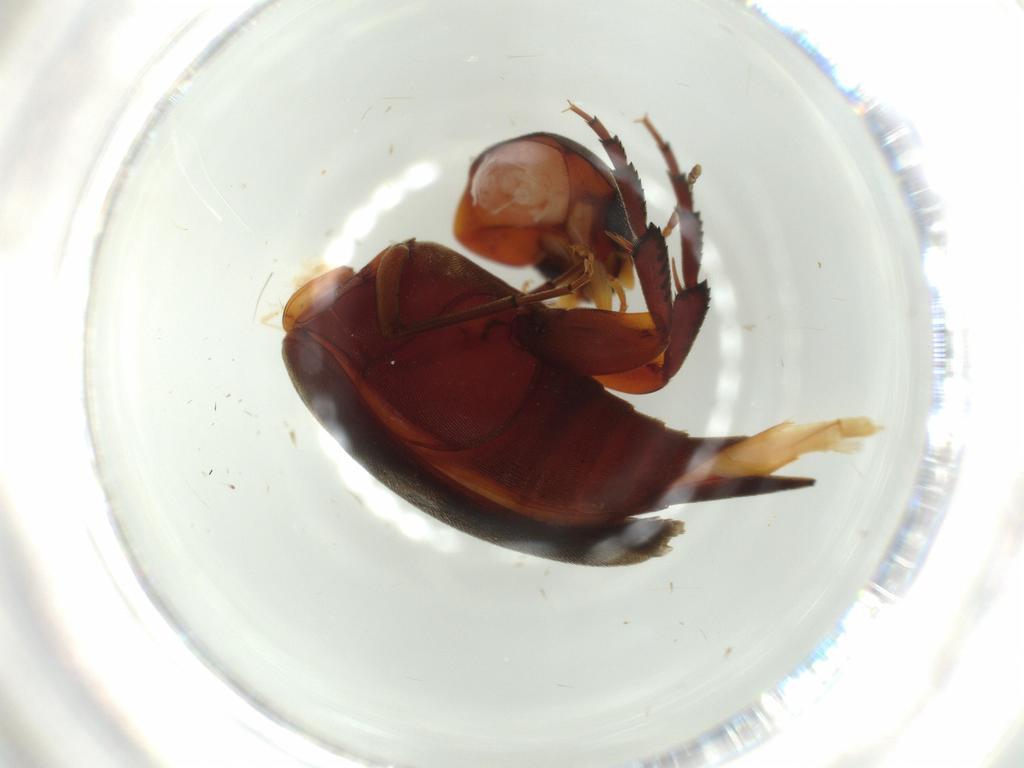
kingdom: Animalia
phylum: Arthropoda
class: Insecta
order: Coleoptera
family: Mordellidae
